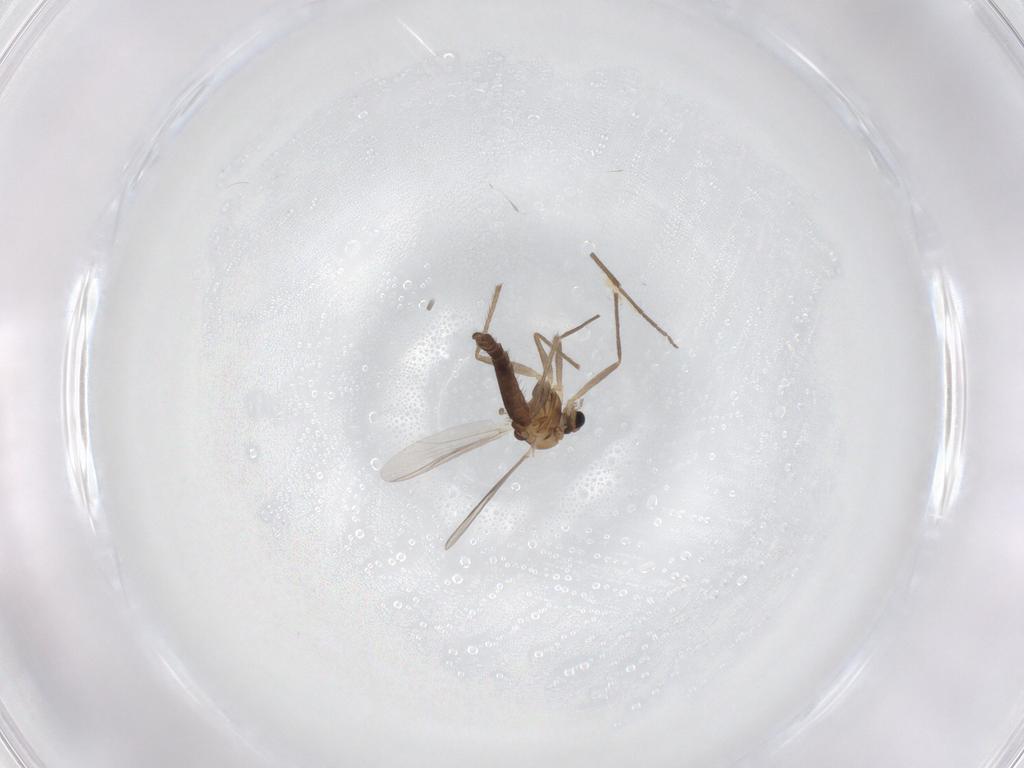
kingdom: Animalia
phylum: Arthropoda
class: Insecta
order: Diptera
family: Chironomidae
